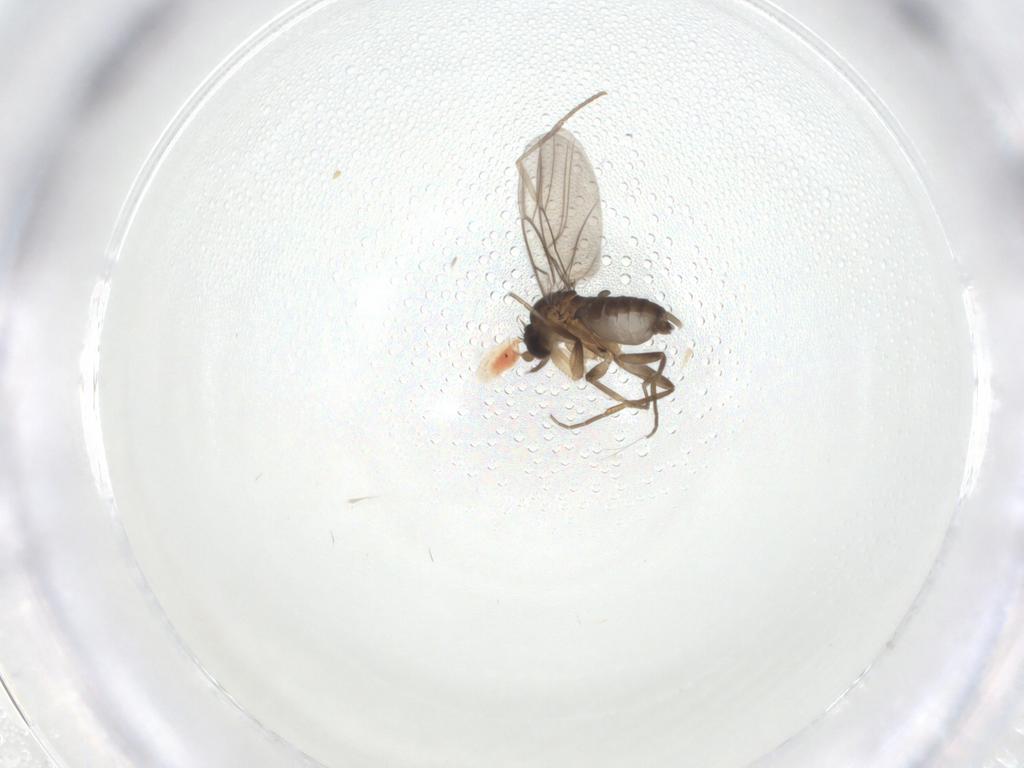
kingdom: Animalia
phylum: Arthropoda
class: Insecta
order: Diptera
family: Phoridae
